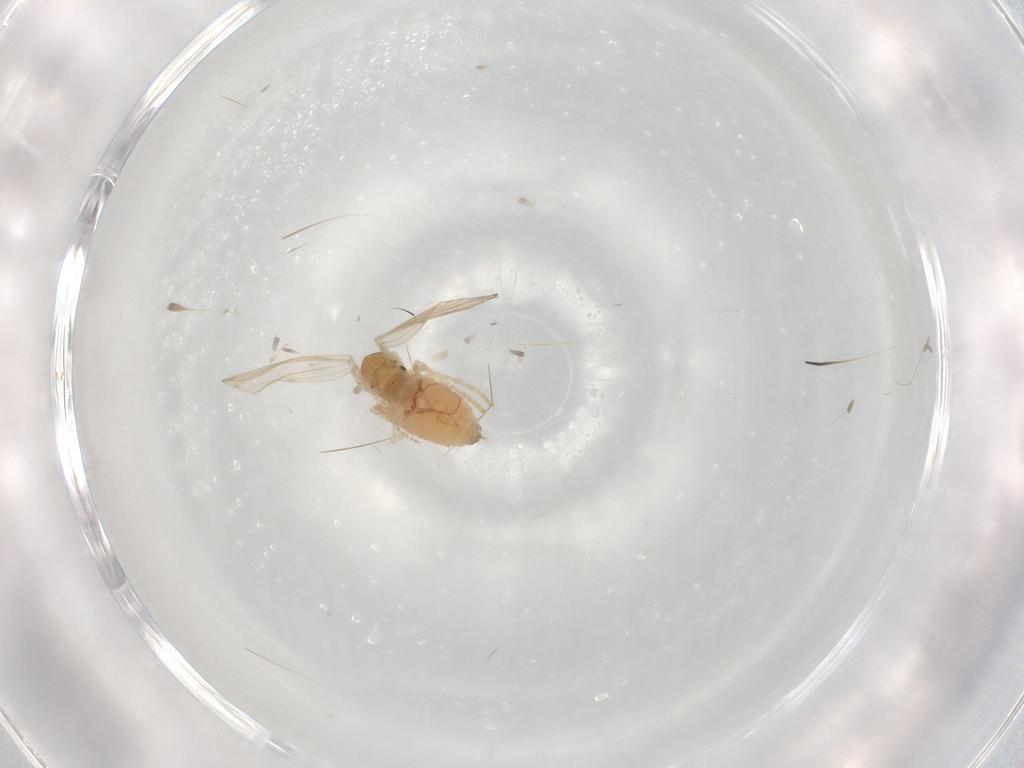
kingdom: Animalia
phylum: Arthropoda
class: Insecta
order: Diptera
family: Psychodidae
